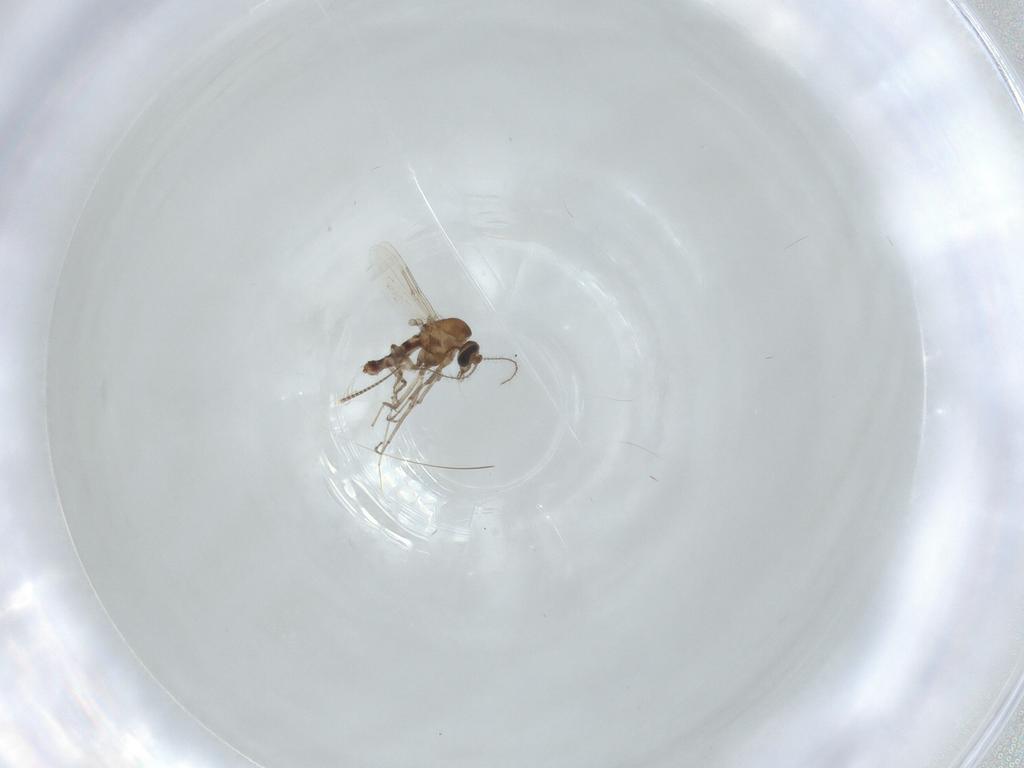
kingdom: Animalia
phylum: Arthropoda
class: Insecta
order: Diptera
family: Ceratopogonidae
